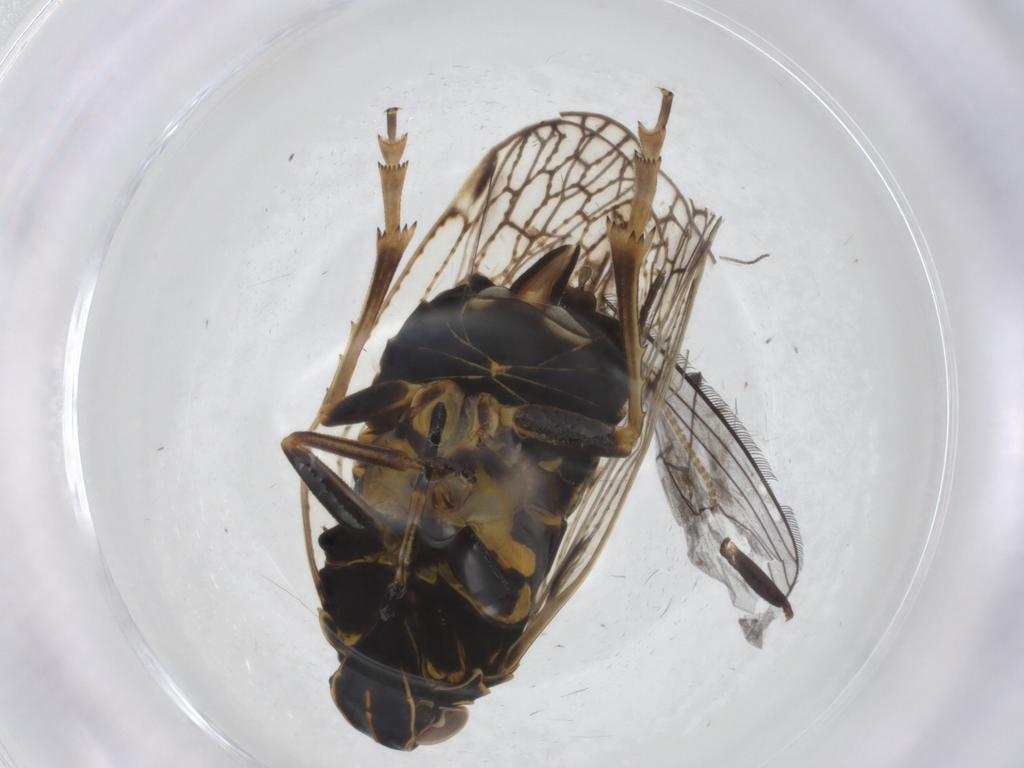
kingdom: Animalia
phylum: Arthropoda
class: Insecta
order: Hemiptera
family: Cixiidae
